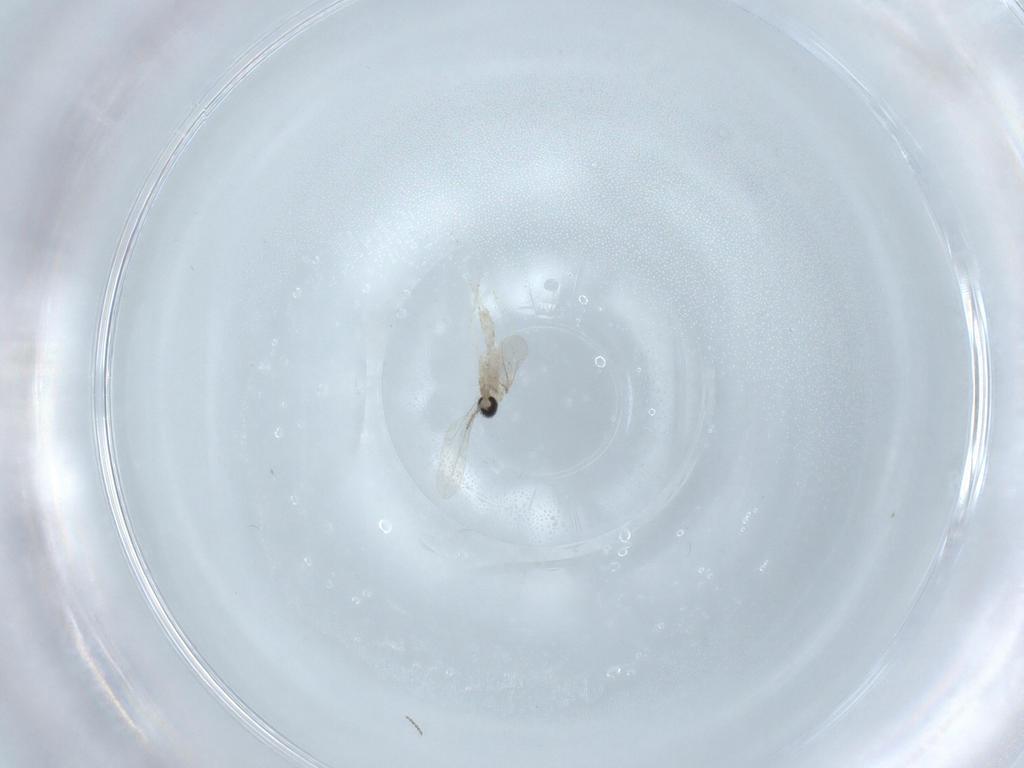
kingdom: Animalia
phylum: Arthropoda
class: Insecta
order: Diptera
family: Cecidomyiidae
